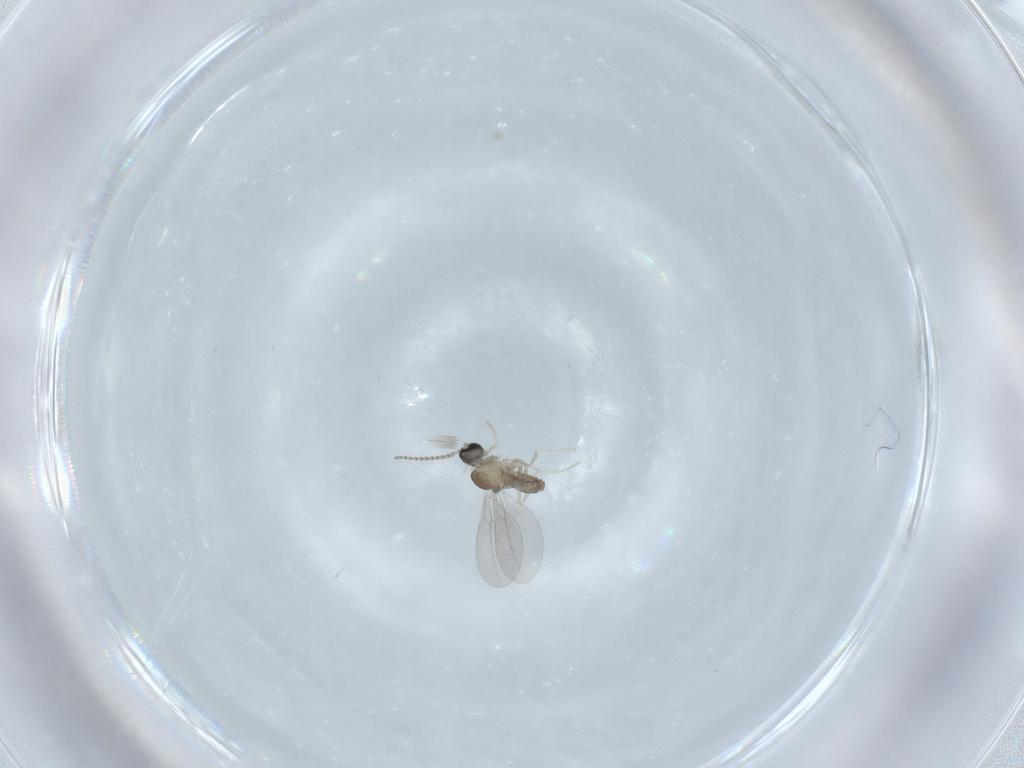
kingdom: Animalia
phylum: Arthropoda
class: Insecta
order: Diptera
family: Cecidomyiidae
